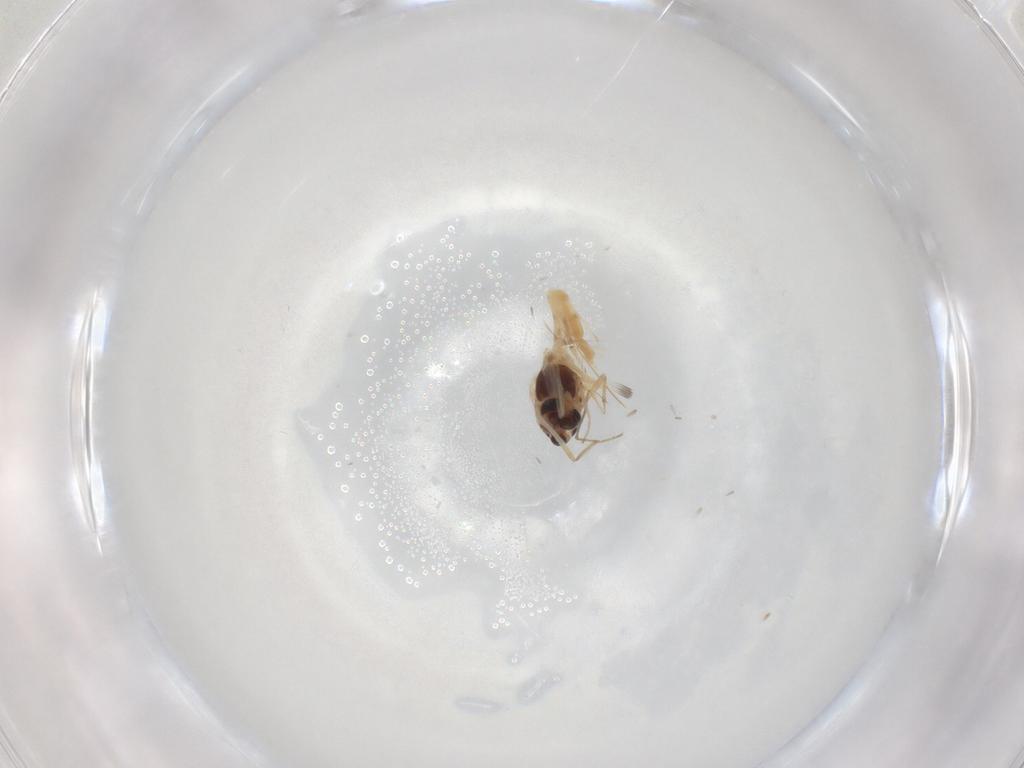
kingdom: Animalia
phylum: Arthropoda
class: Insecta
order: Diptera
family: Chironomidae
